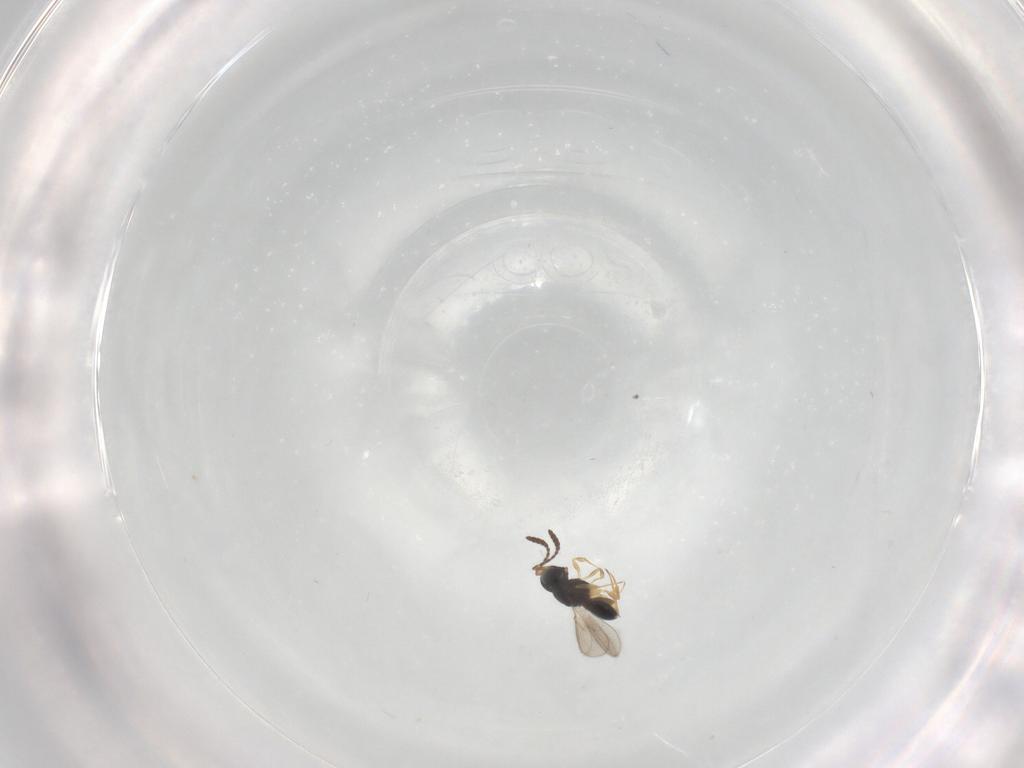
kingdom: Animalia
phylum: Arthropoda
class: Insecta
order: Hymenoptera
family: Scelionidae
